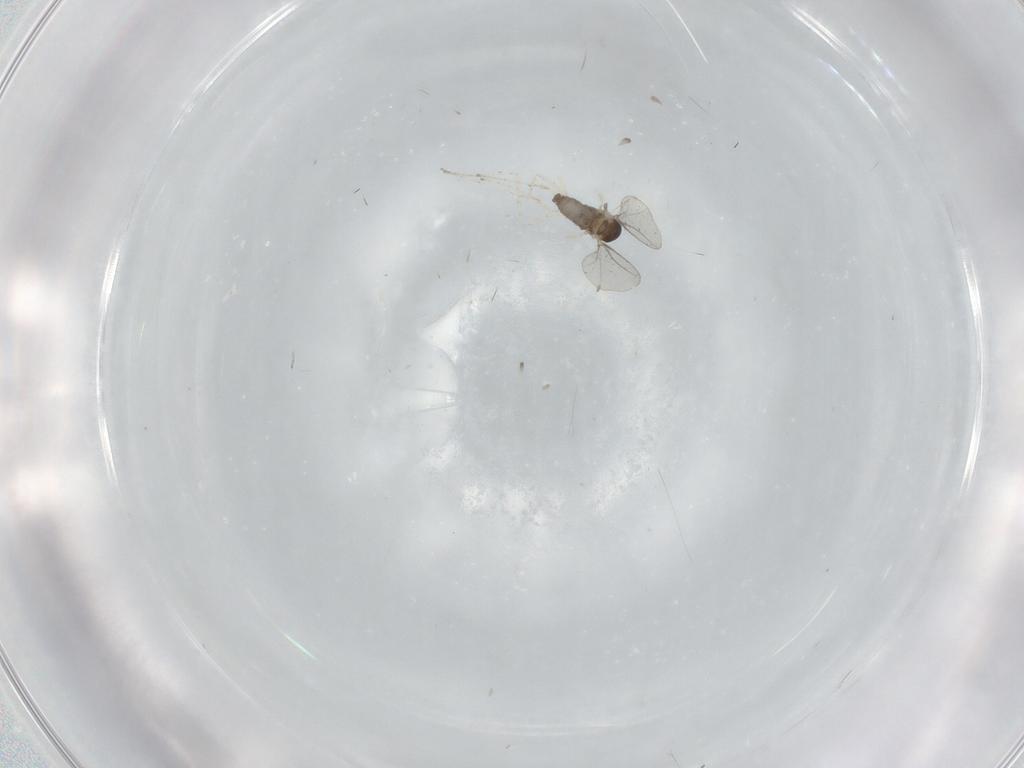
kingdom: Animalia
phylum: Arthropoda
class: Insecta
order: Diptera
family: Cecidomyiidae
